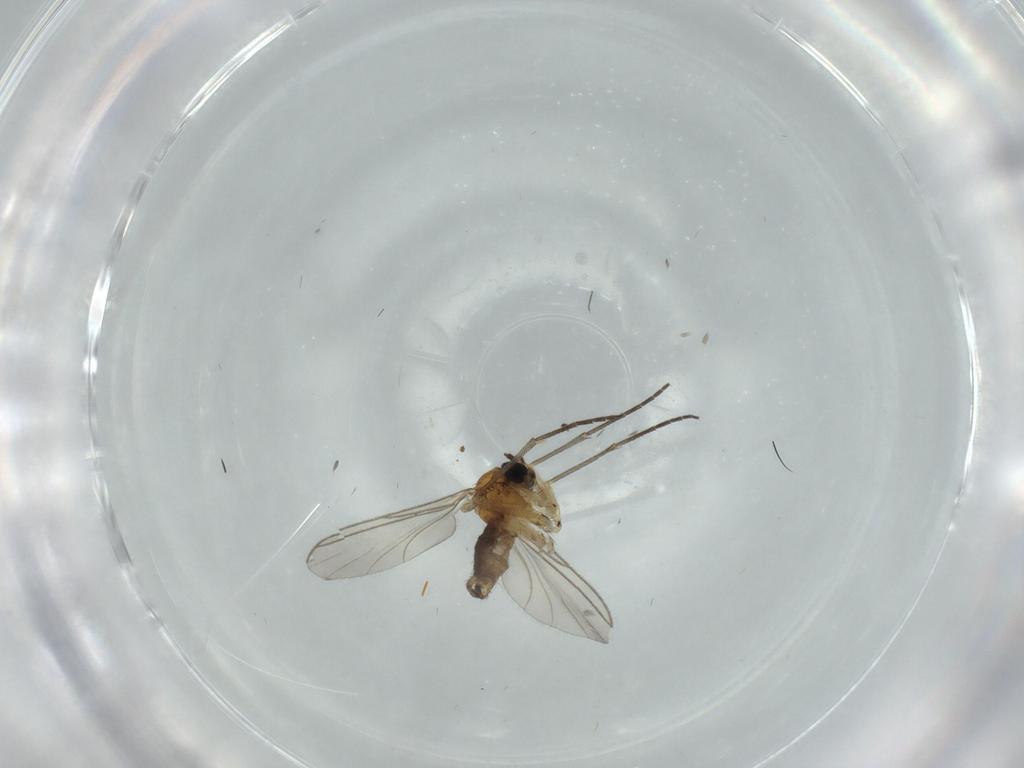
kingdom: Animalia
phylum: Arthropoda
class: Insecta
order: Diptera
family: Sciaridae
